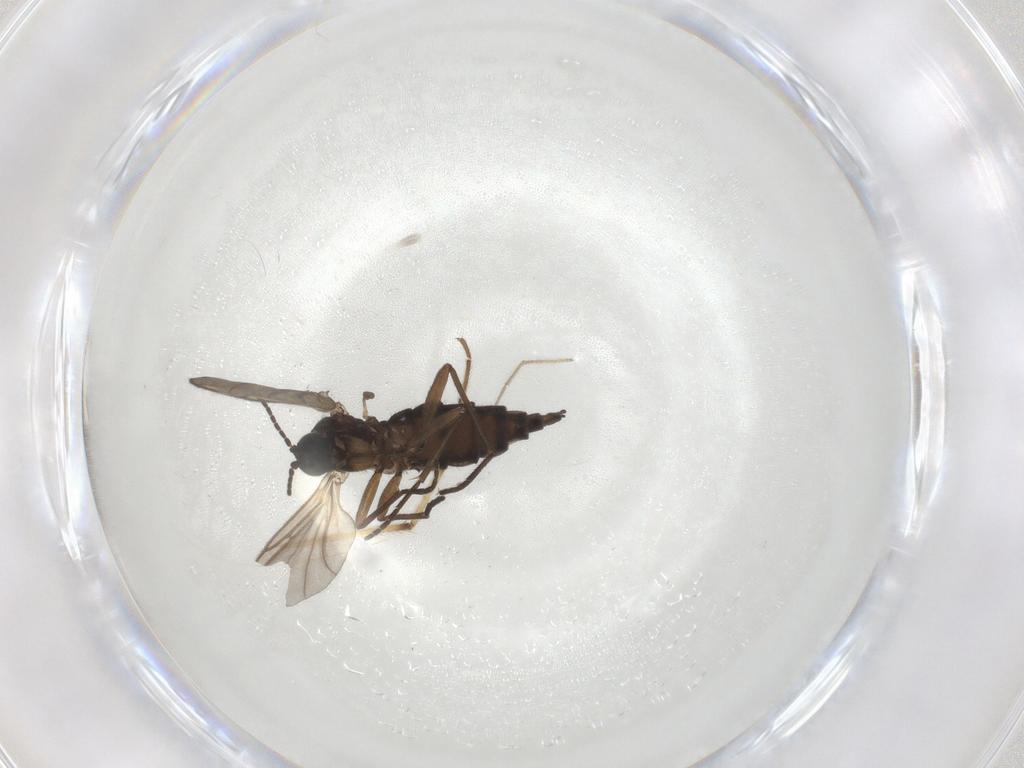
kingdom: Animalia
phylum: Arthropoda
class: Insecta
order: Diptera
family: Sciaridae
